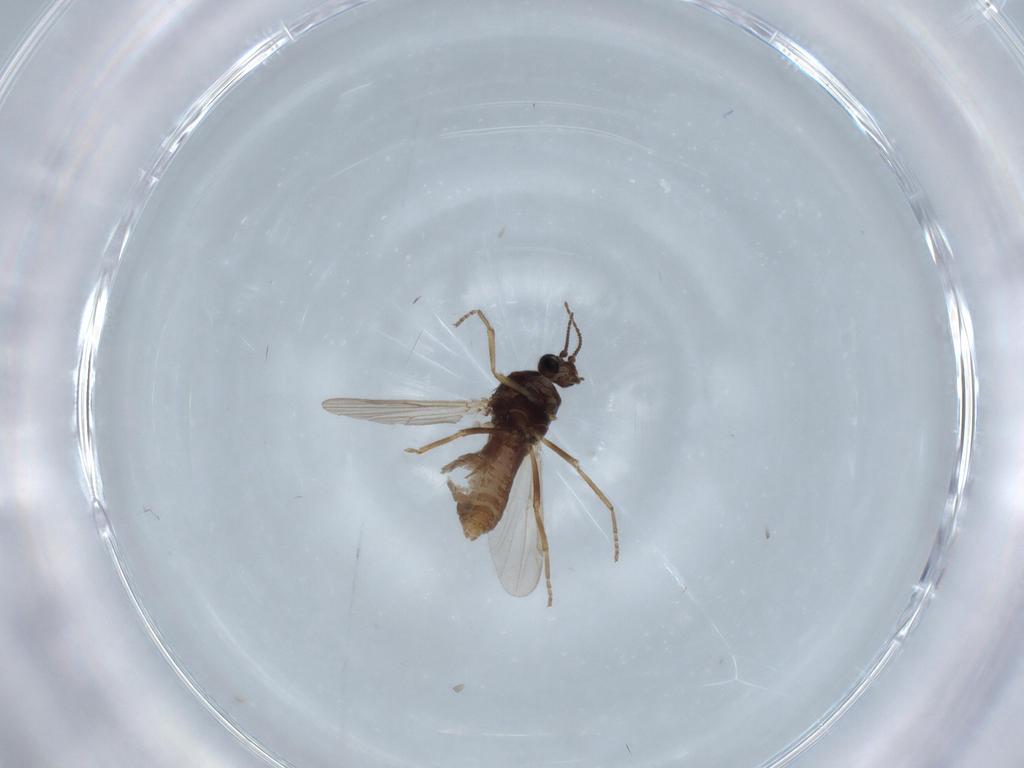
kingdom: Animalia
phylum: Arthropoda
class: Insecta
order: Diptera
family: Ceratopogonidae
